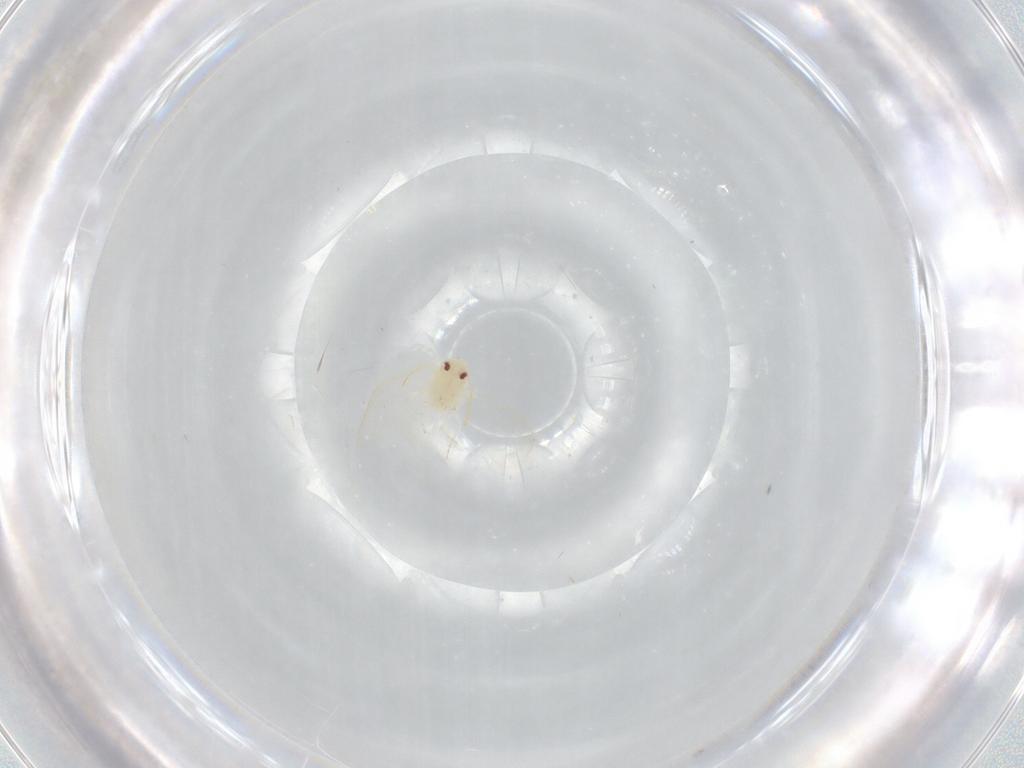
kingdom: Animalia
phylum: Arthropoda
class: Insecta
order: Hemiptera
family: Aleyrodidae
